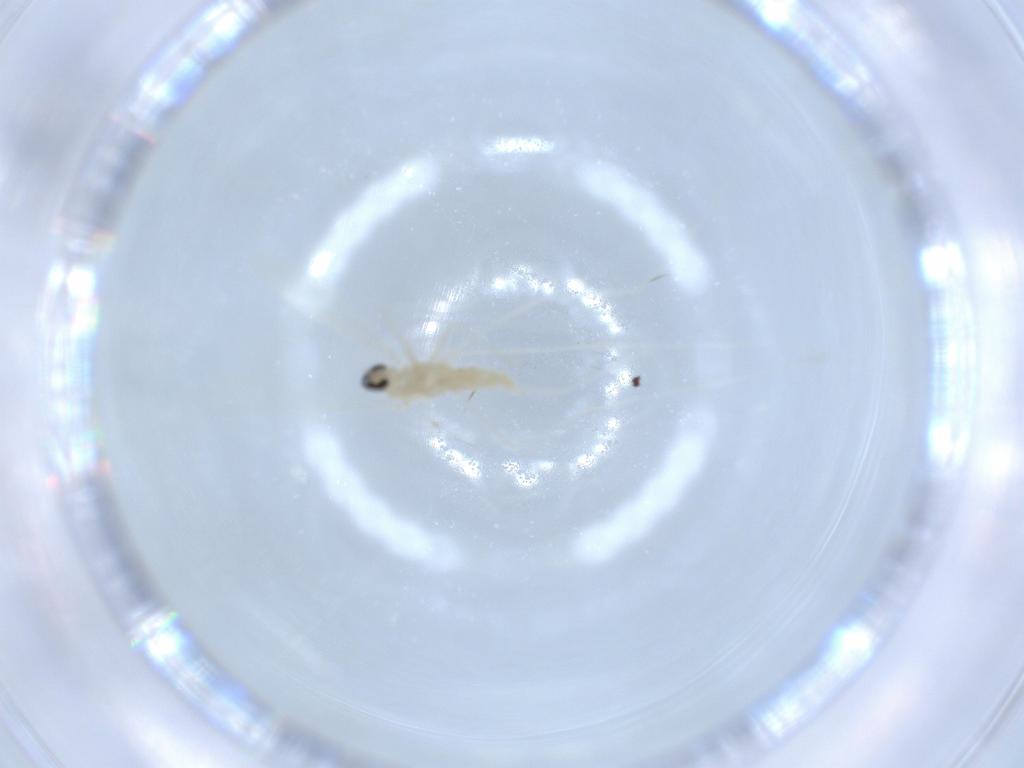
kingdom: Animalia
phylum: Arthropoda
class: Insecta
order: Diptera
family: Cecidomyiidae
